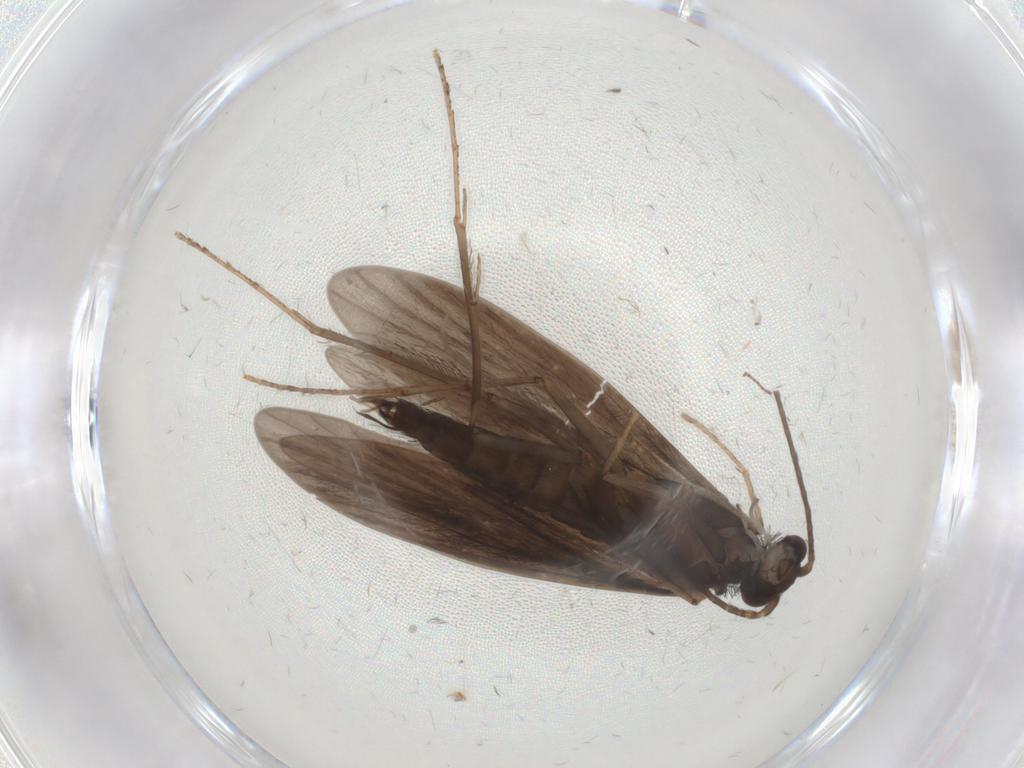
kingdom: Animalia
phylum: Arthropoda
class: Insecta
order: Trichoptera
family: Xiphocentronidae
